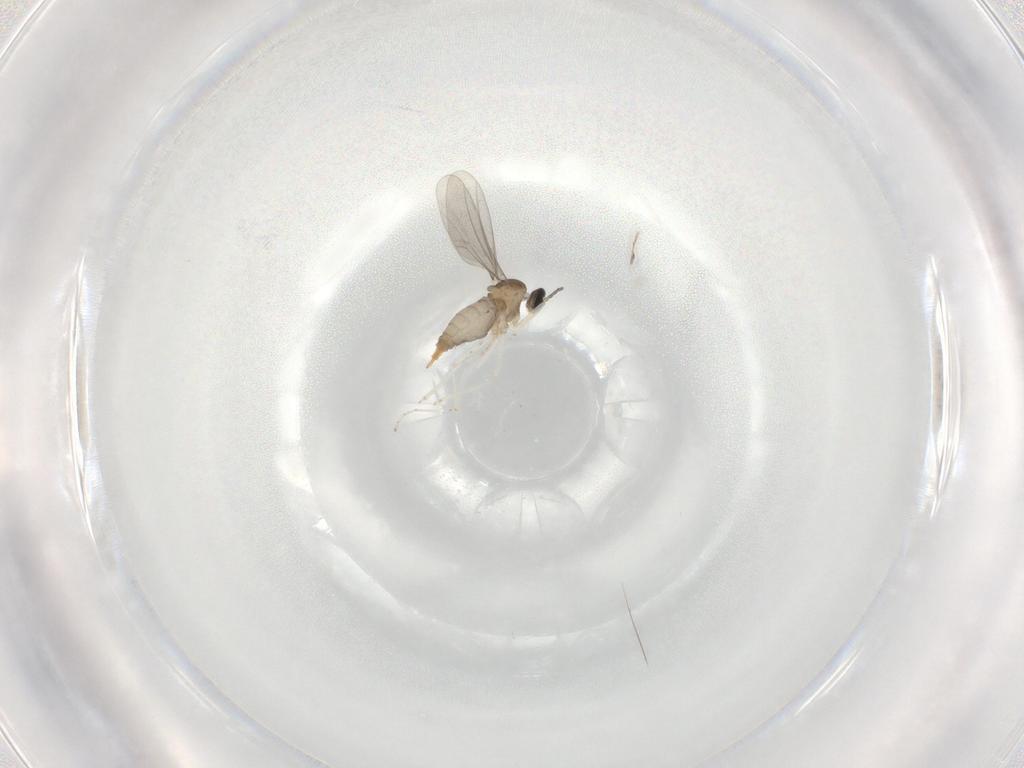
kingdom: Animalia
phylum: Arthropoda
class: Insecta
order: Diptera
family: Cecidomyiidae
